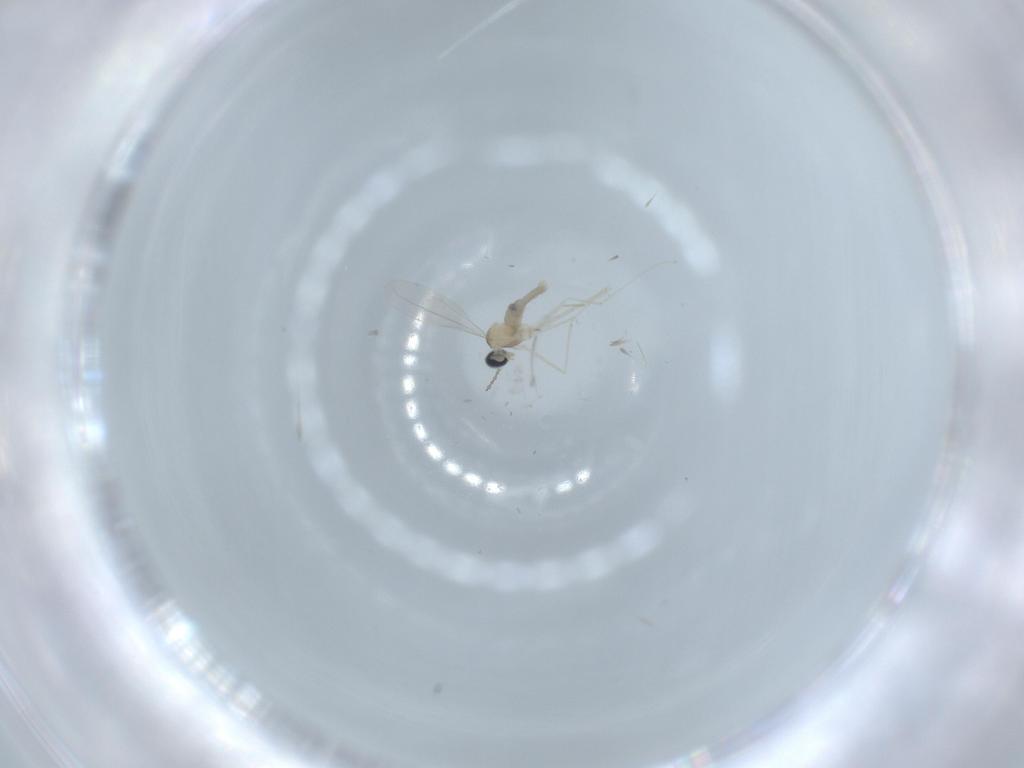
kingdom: Animalia
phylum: Arthropoda
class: Insecta
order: Diptera
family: Cecidomyiidae
